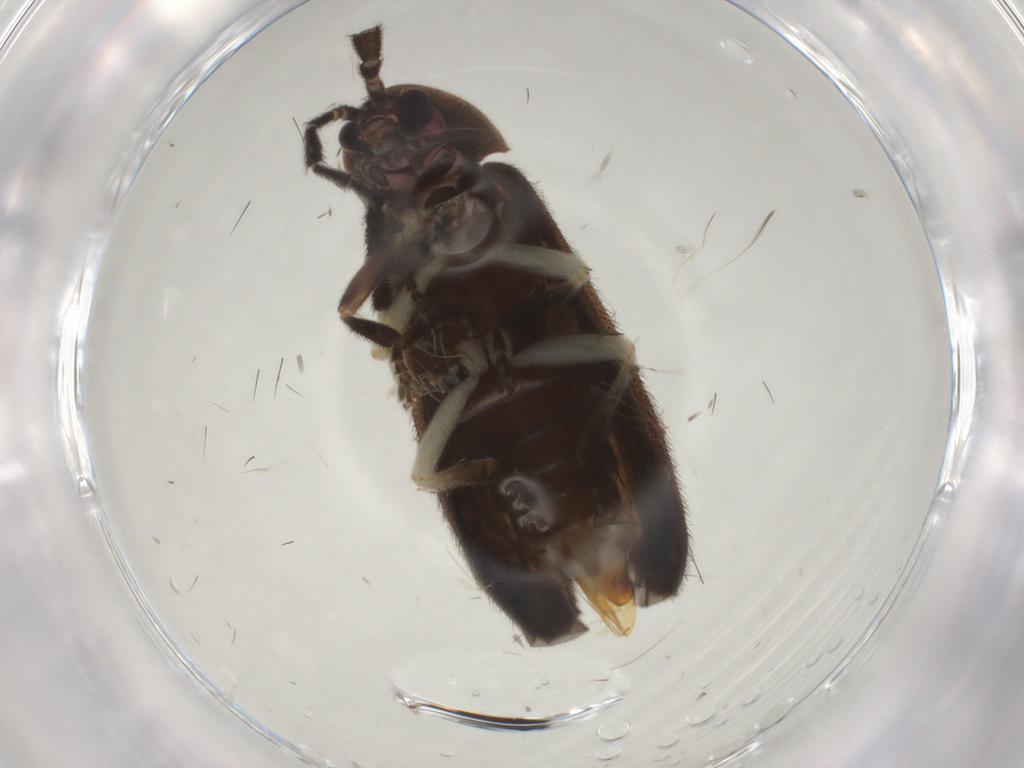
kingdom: Animalia
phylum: Arthropoda
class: Insecta
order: Coleoptera
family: Lampyridae
